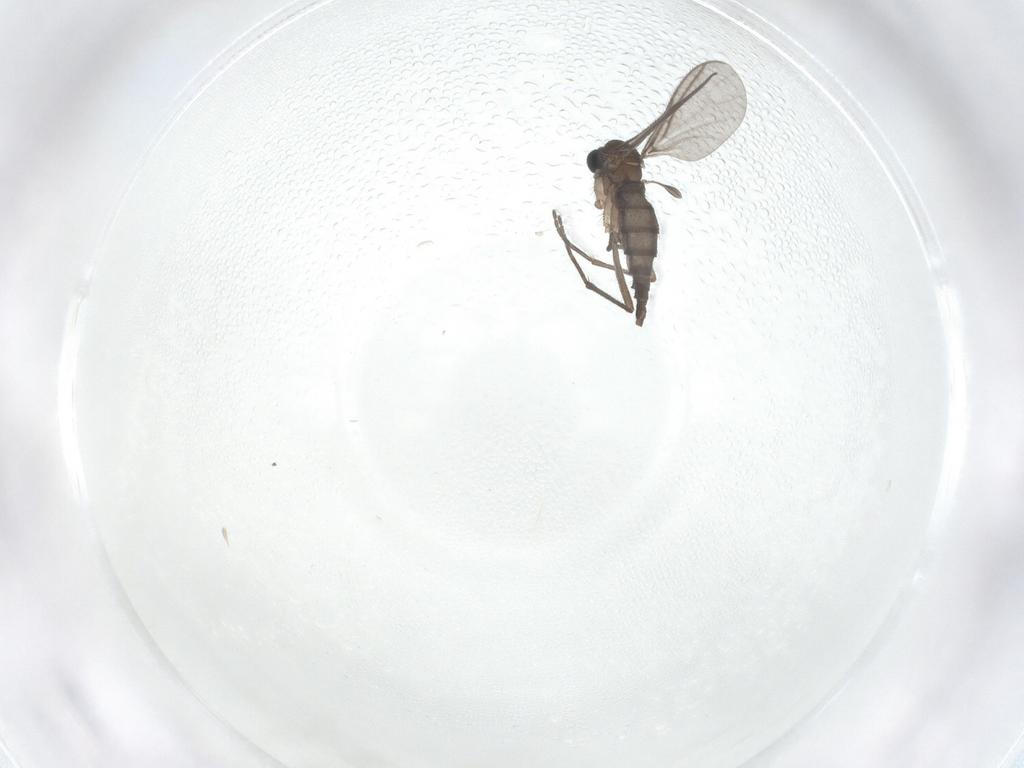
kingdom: Animalia
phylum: Arthropoda
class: Insecta
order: Diptera
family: Sciaridae
